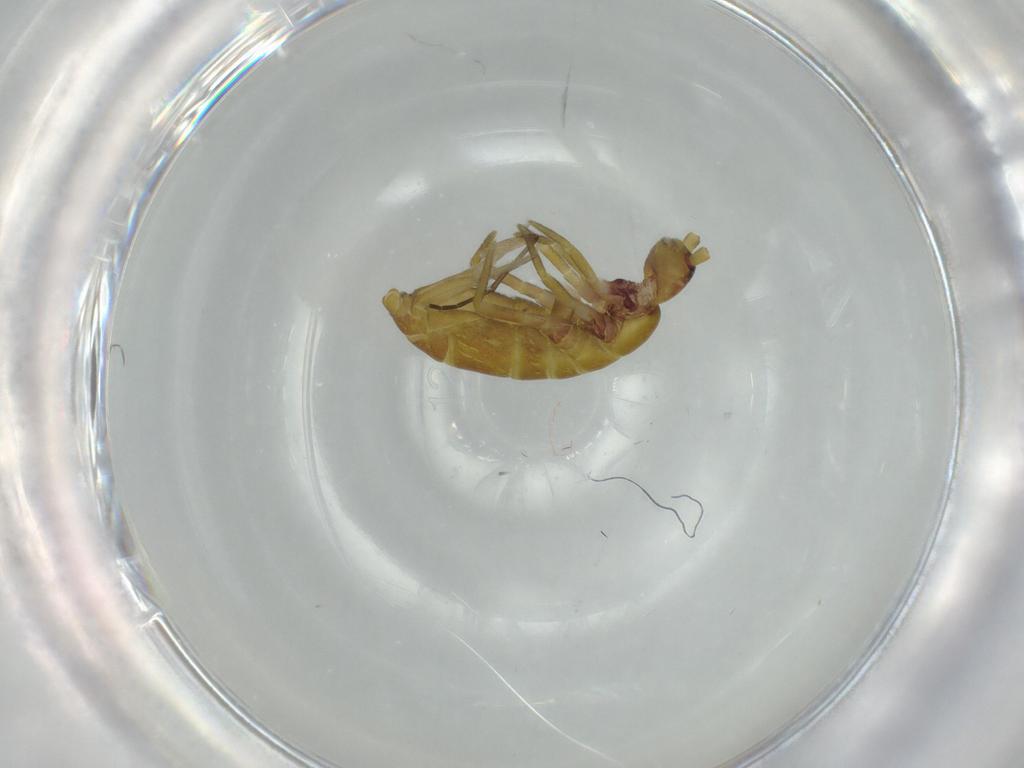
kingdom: Animalia
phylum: Arthropoda
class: Collembola
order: Entomobryomorpha
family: Tomoceridae
